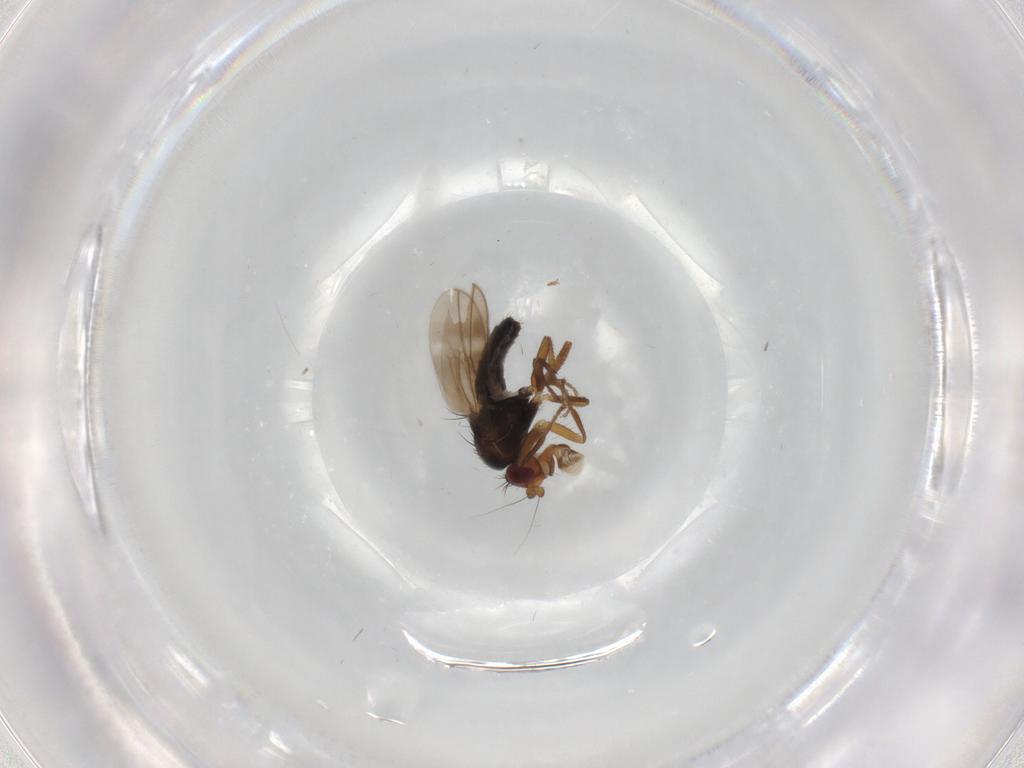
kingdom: Animalia
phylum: Arthropoda
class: Insecta
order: Diptera
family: Sphaeroceridae
